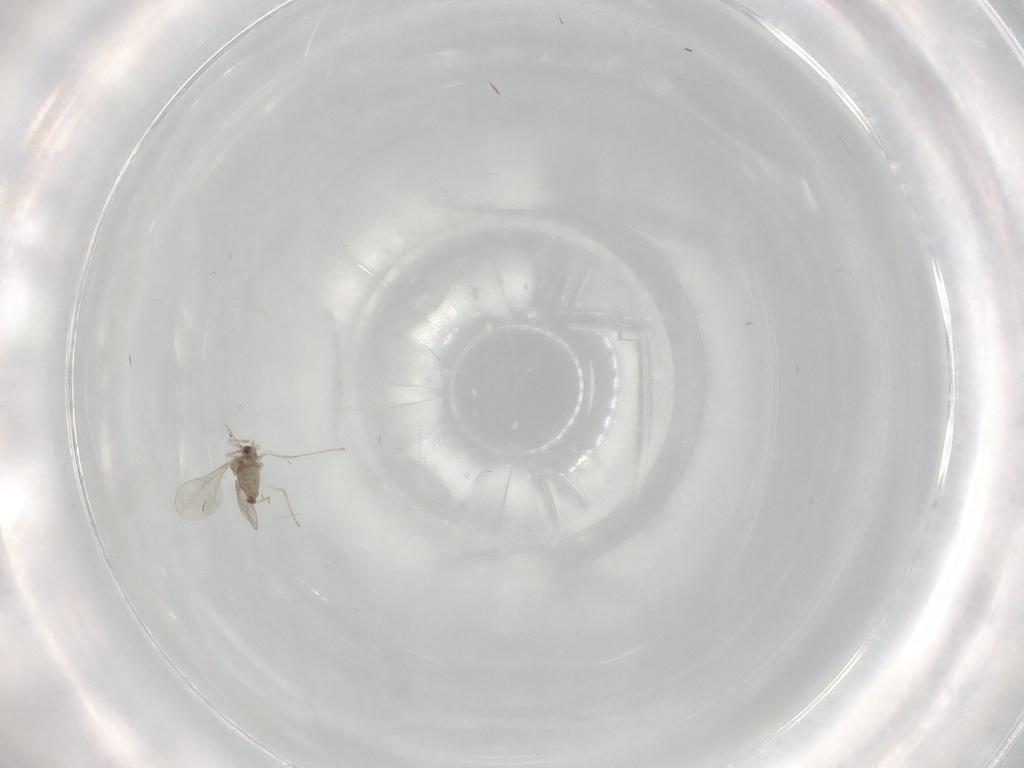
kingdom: Animalia
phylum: Arthropoda
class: Insecta
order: Diptera
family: Cecidomyiidae
